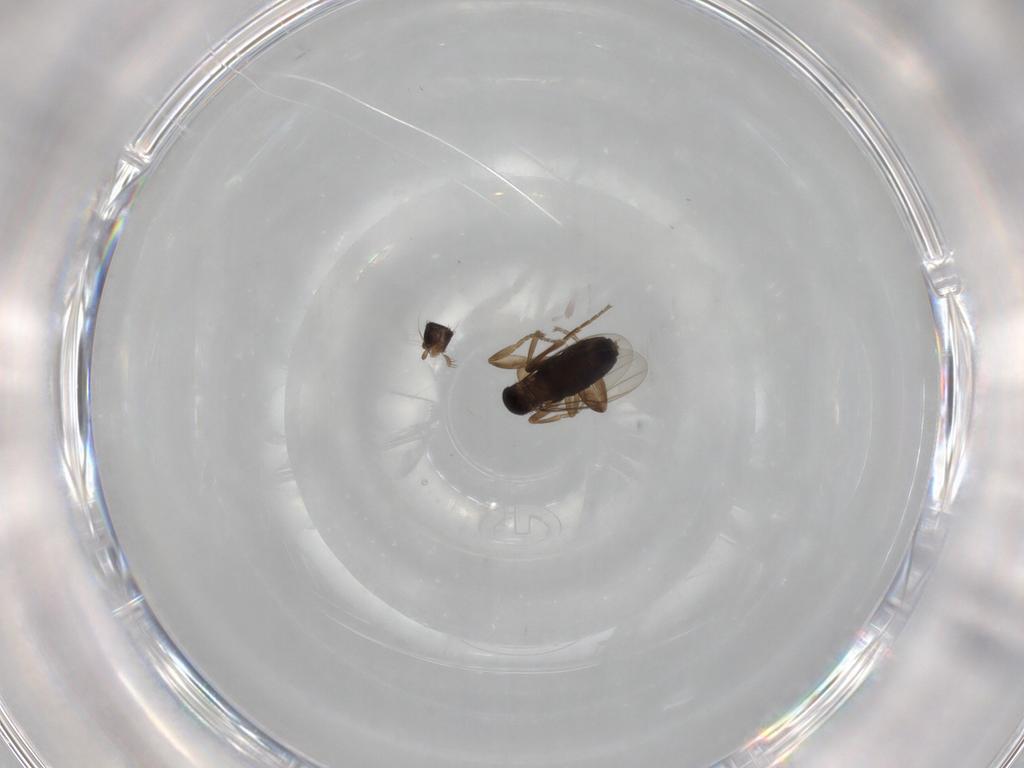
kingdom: Animalia
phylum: Arthropoda
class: Insecta
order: Diptera
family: Phoridae
